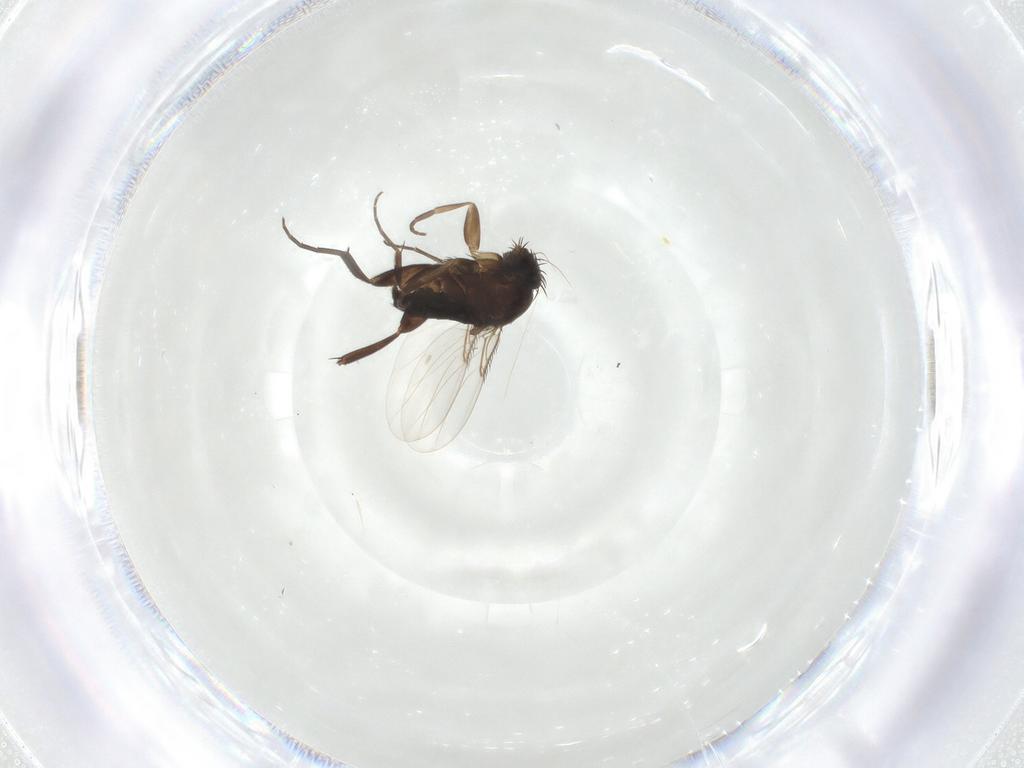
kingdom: Animalia
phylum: Arthropoda
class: Insecta
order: Diptera
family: Phoridae
